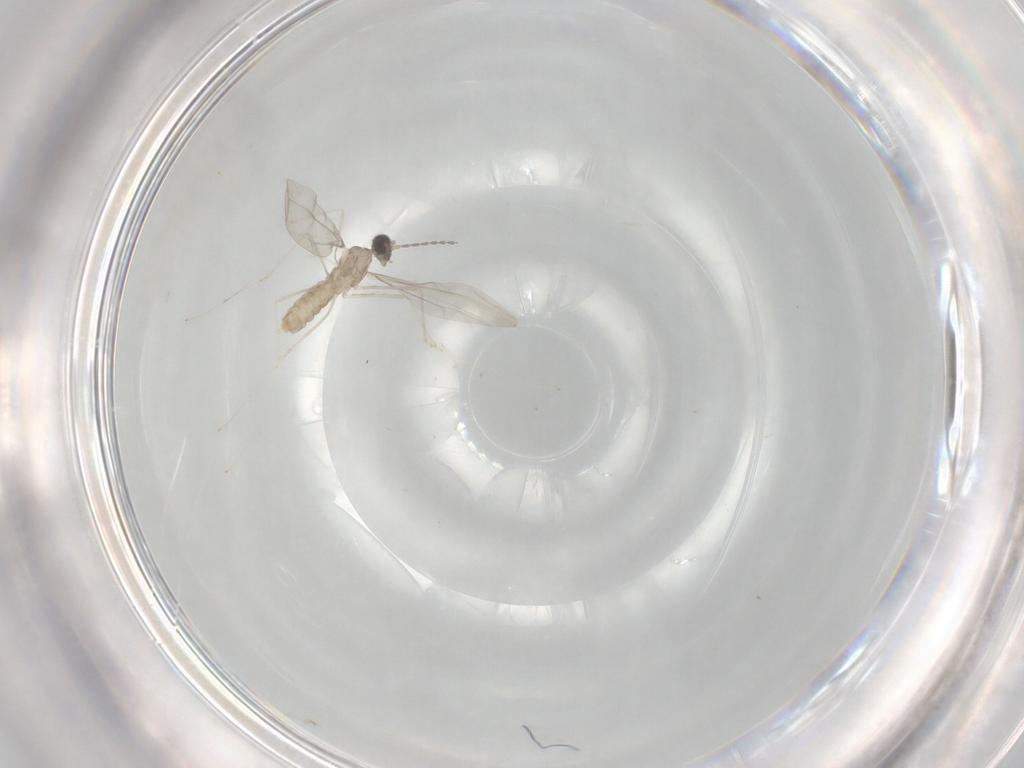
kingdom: Animalia
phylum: Arthropoda
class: Insecta
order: Diptera
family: Cecidomyiidae
